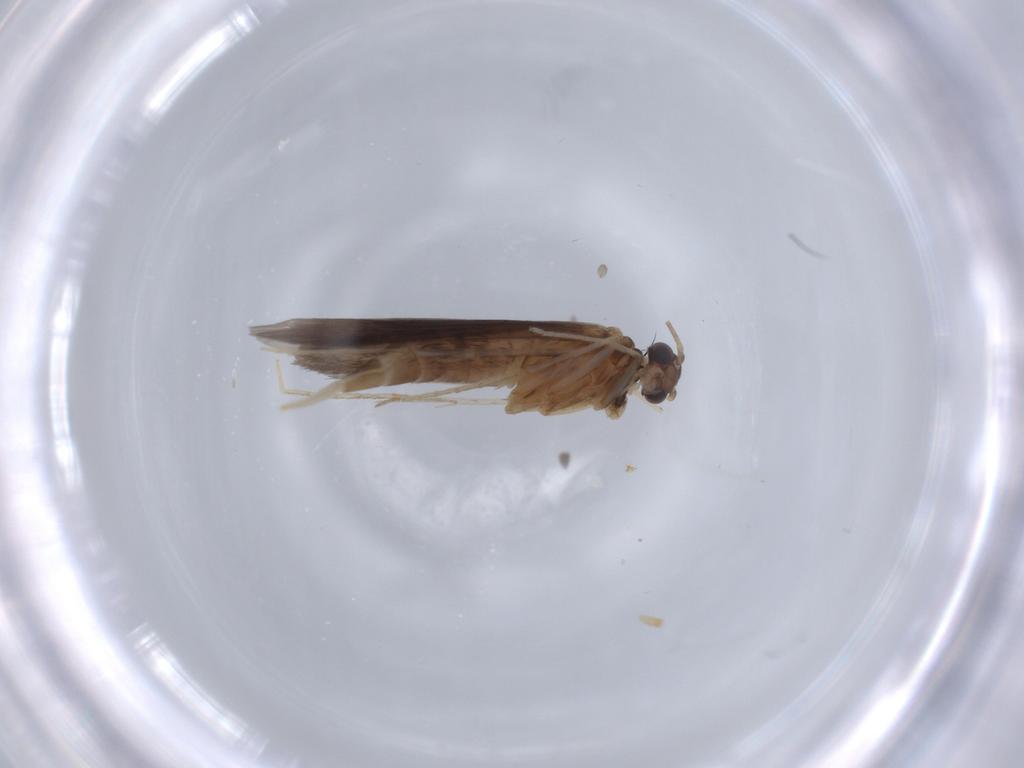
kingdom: Animalia
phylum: Arthropoda
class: Insecta
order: Trichoptera
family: Xiphocentronidae
